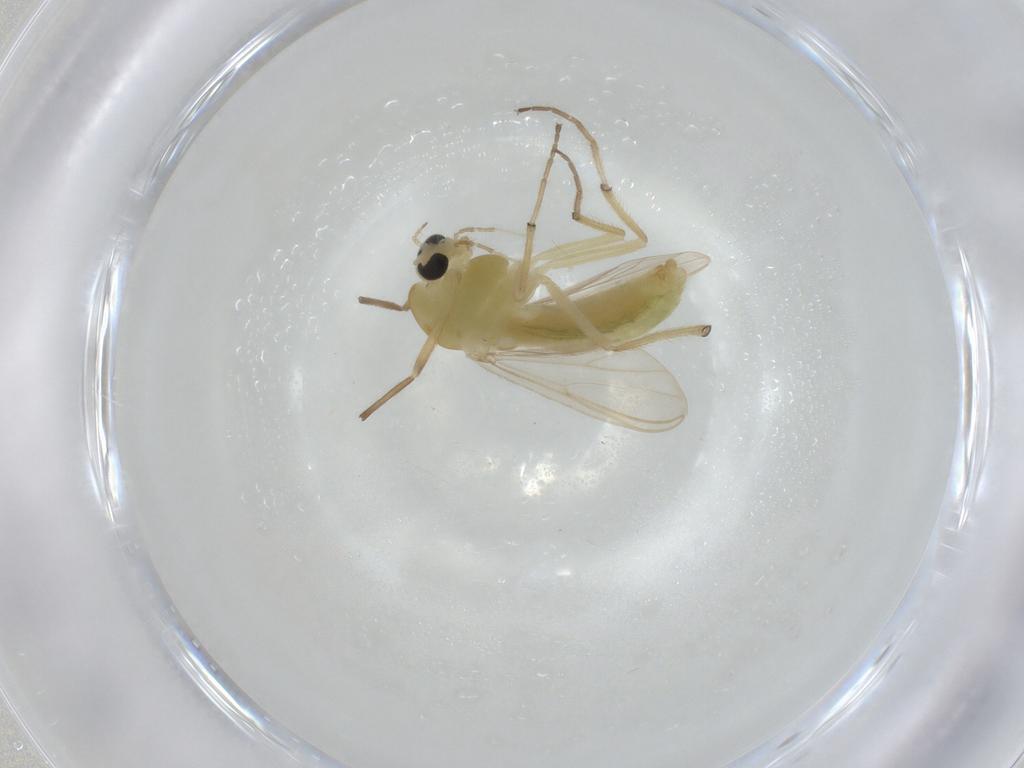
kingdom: Animalia
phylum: Arthropoda
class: Insecta
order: Diptera
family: Chironomidae
